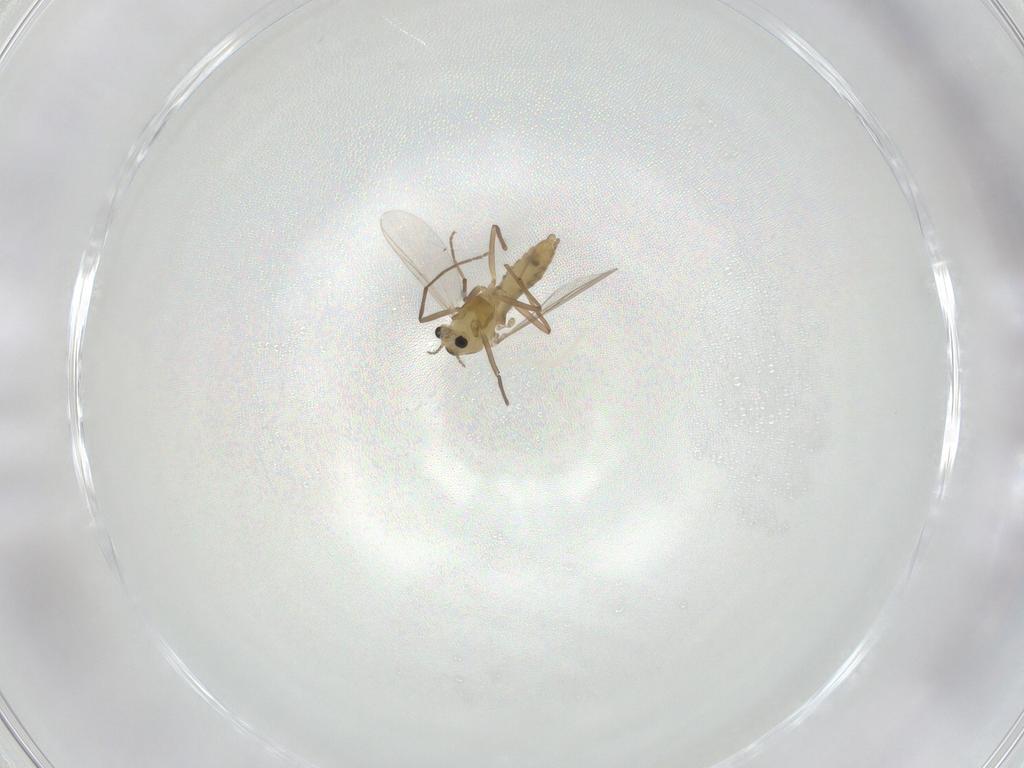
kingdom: Animalia
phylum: Arthropoda
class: Insecta
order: Diptera
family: Chironomidae
